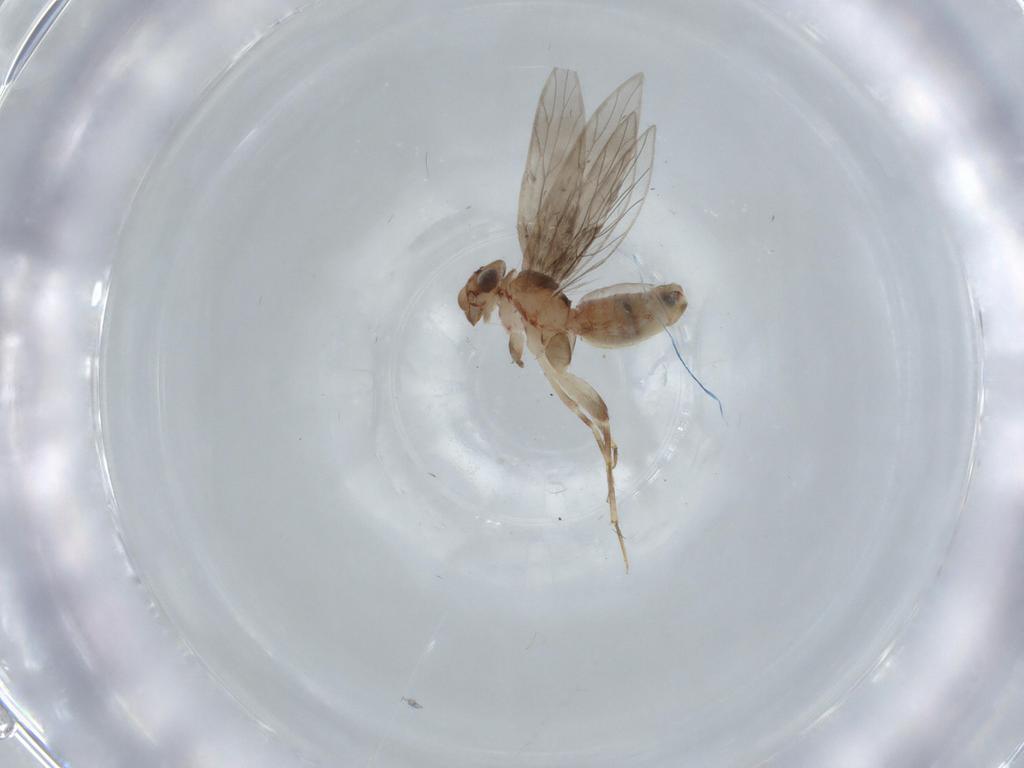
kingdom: Animalia
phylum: Arthropoda
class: Insecta
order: Psocodea
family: Lepidopsocidae
